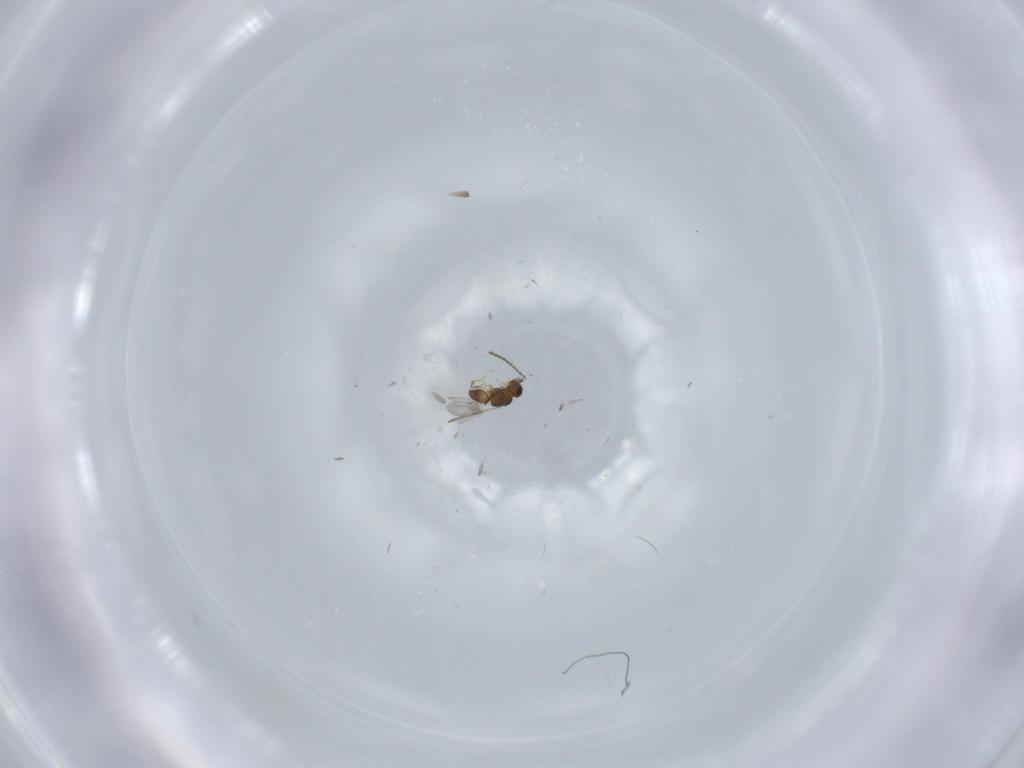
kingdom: Animalia
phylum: Arthropoda
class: Insecta
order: Hymenoptera
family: Ceraphronidae
